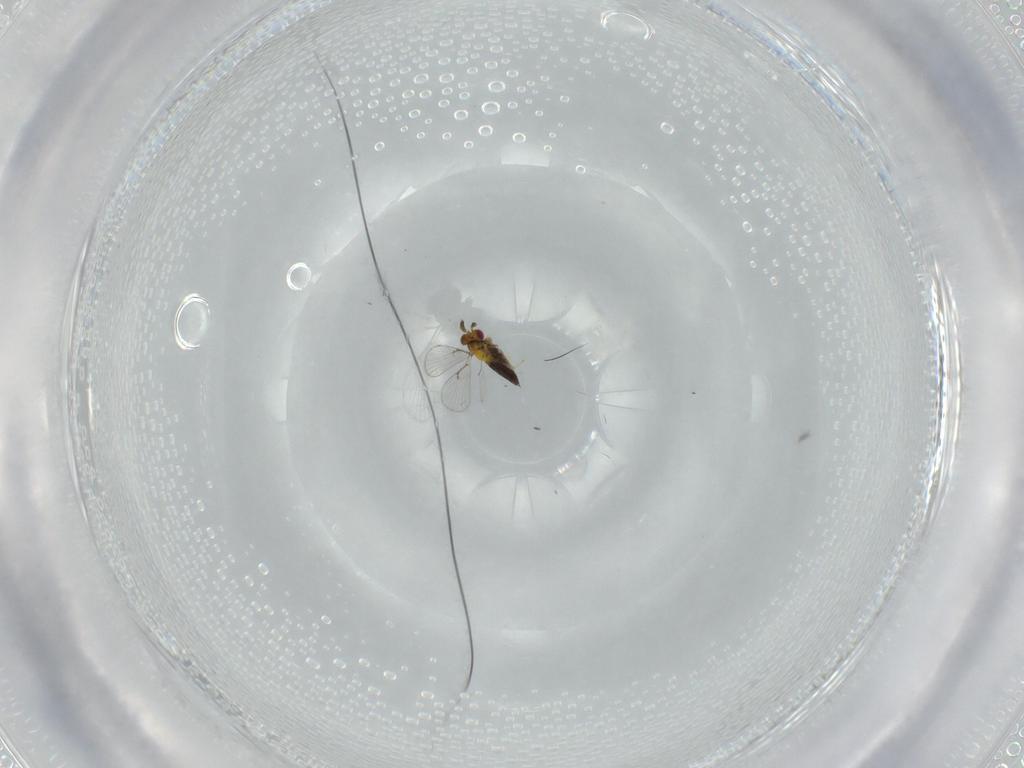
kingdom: Animalia
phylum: Arthropoda
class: Insecta
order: Hymenoptera
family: Trichogrammatidae
